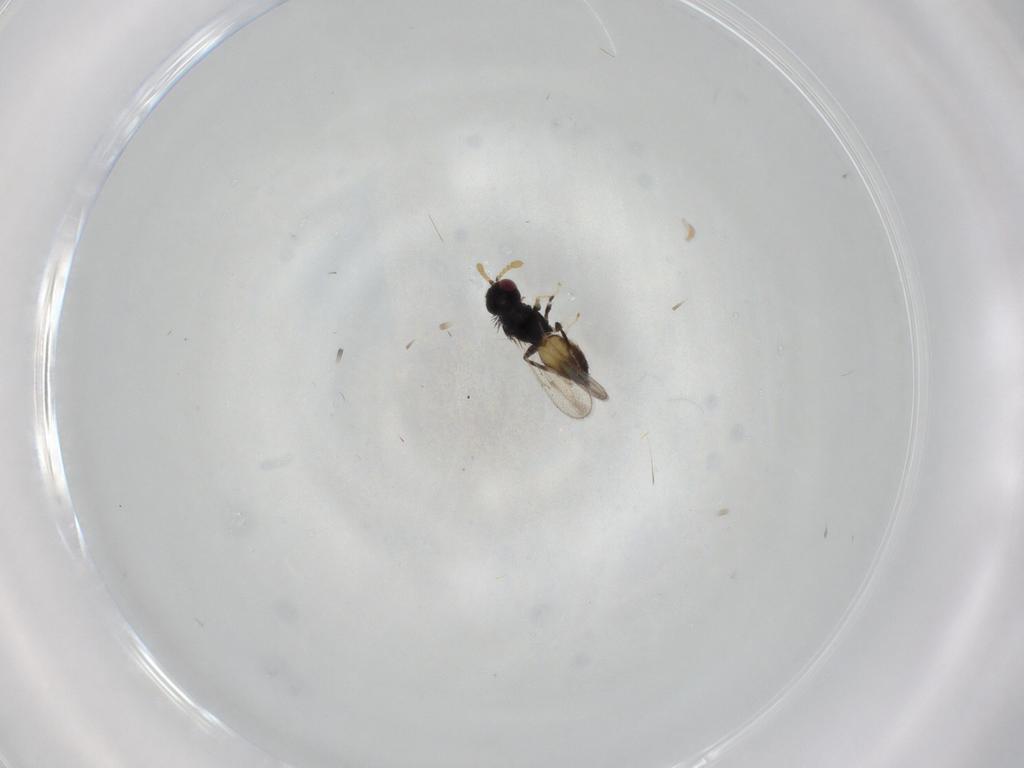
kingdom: Animalia
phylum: Arthropoda
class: Insecta
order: Hymenoptera
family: Eulophidae
